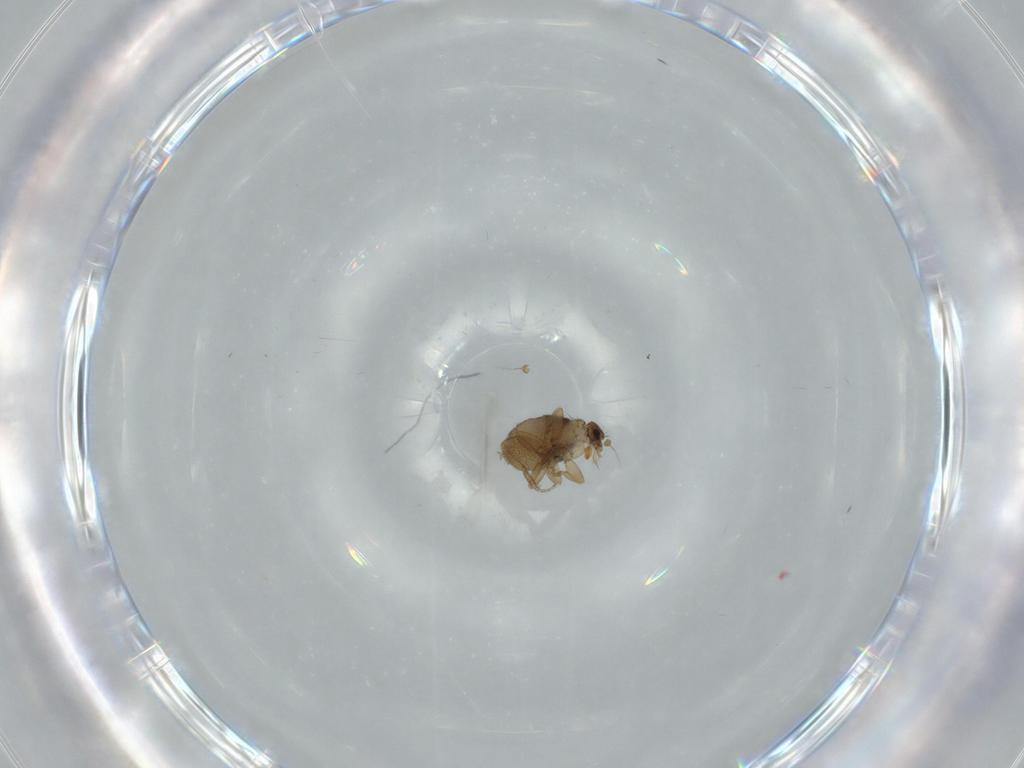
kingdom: Animalia
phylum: Arthropoda
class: Insecta
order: Diptera
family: Phoridae
